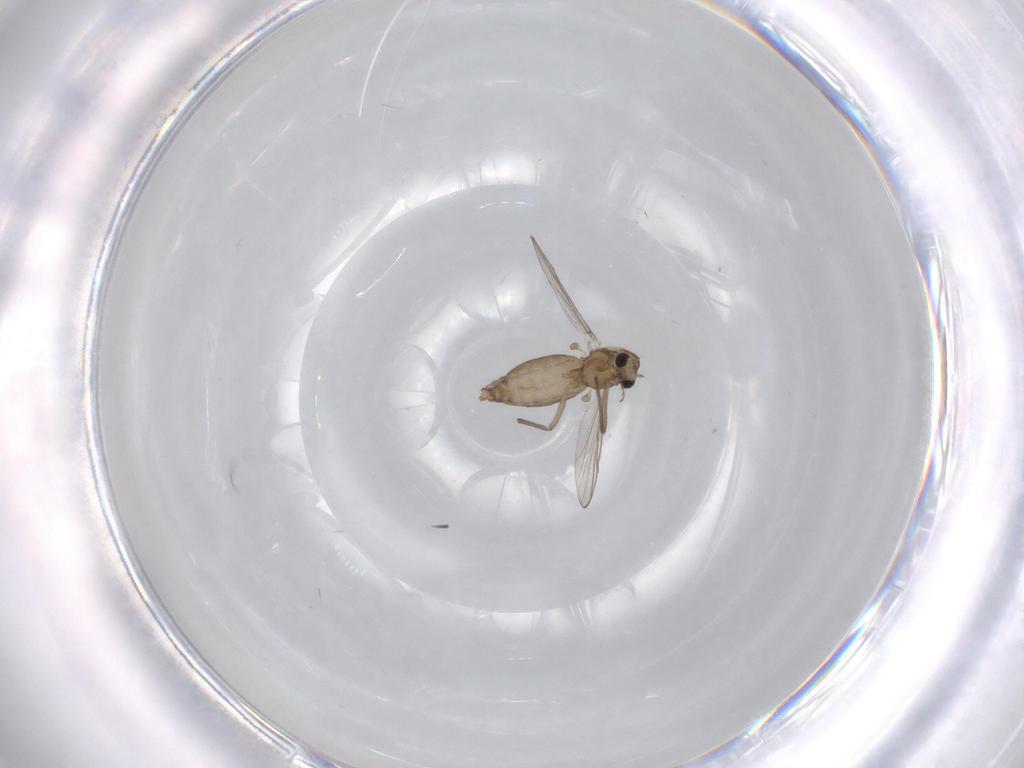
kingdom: Animalia
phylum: Arthropoda
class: Insecta
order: Diptera
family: Chironomidae
